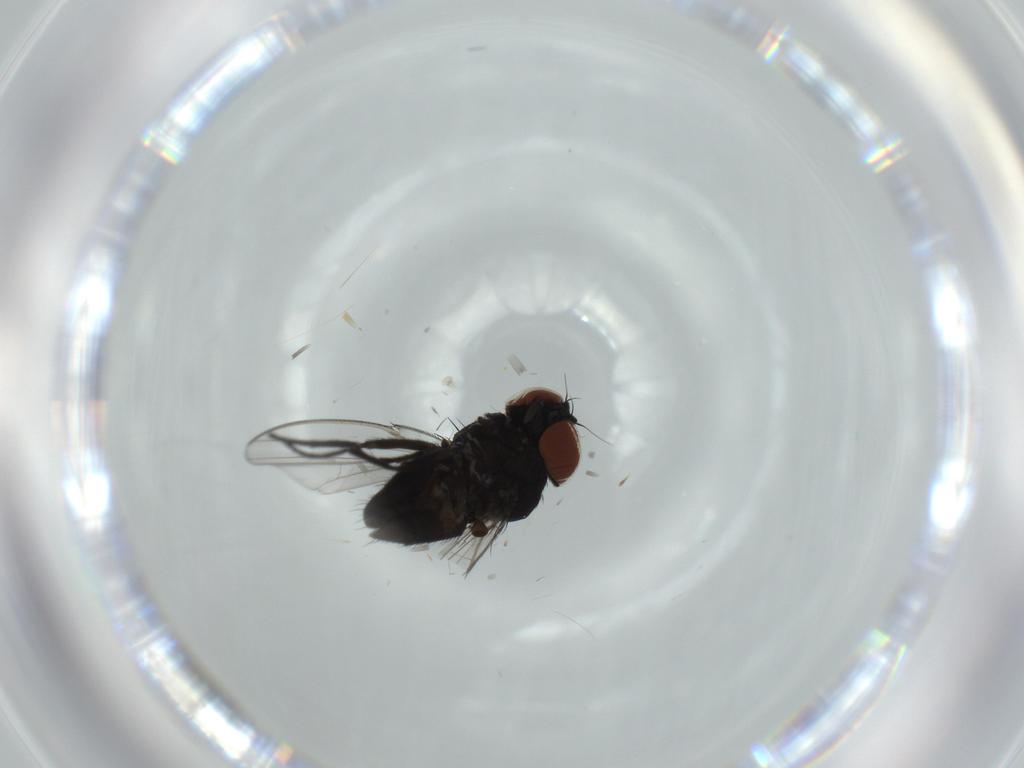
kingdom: Animalia
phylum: Arthropoda
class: Insecta
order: Diptera
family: Milichiidae
